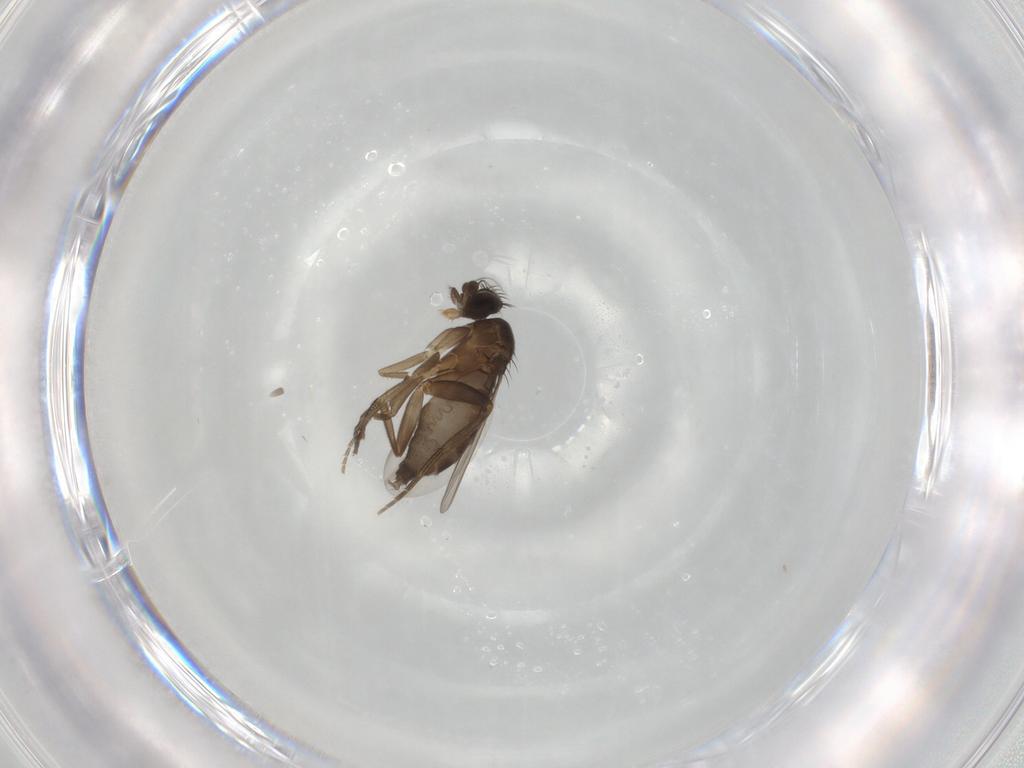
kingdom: Animalia
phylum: Arthropoda
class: Insecta
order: Diptera
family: Phoridae
